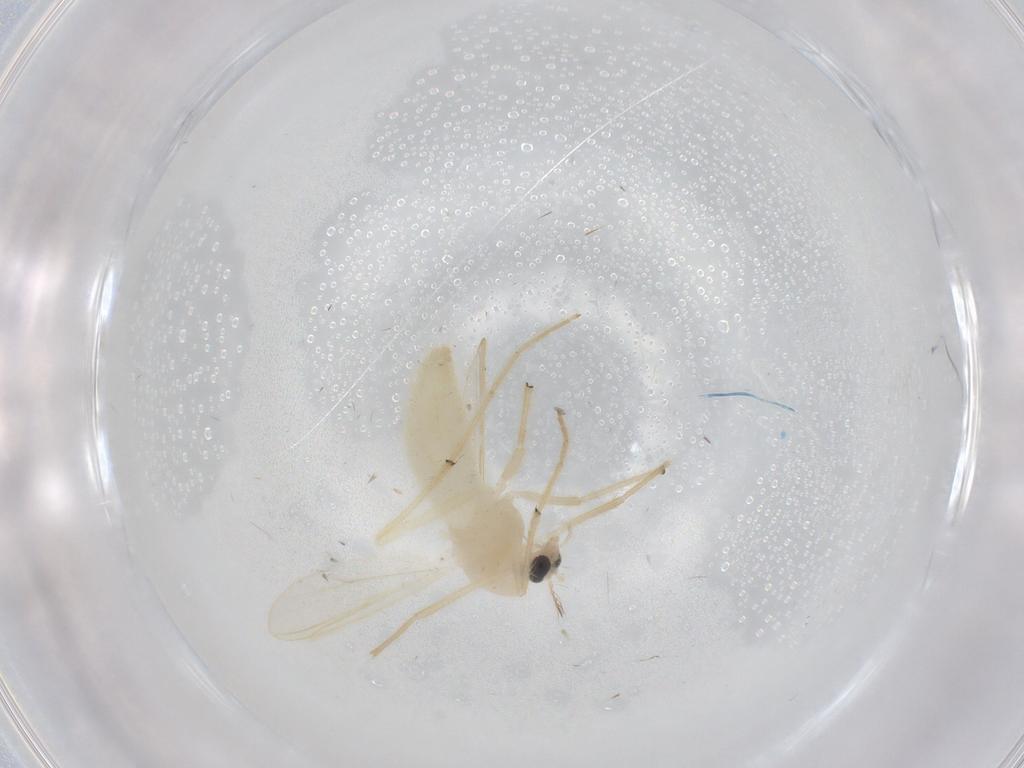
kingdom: Animalia
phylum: Arthropoda
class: Insecta
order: Diptera
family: Chironomidae
